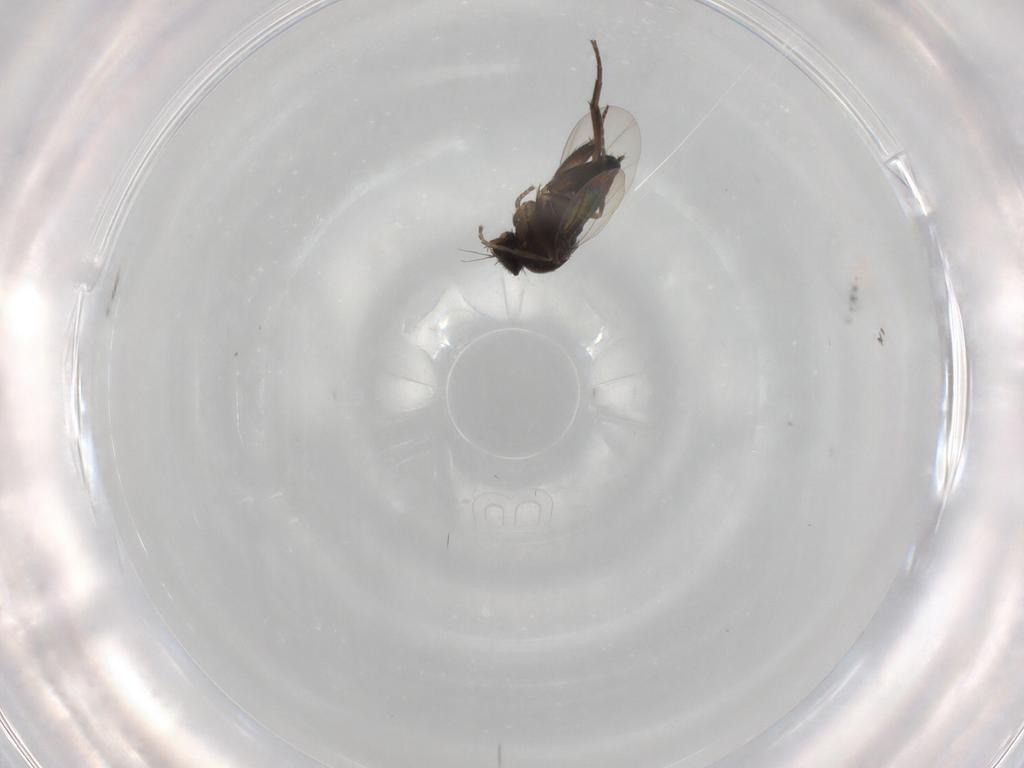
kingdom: Animalia
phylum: Arthropoda
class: Insecta
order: Diptera
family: Phoridae
